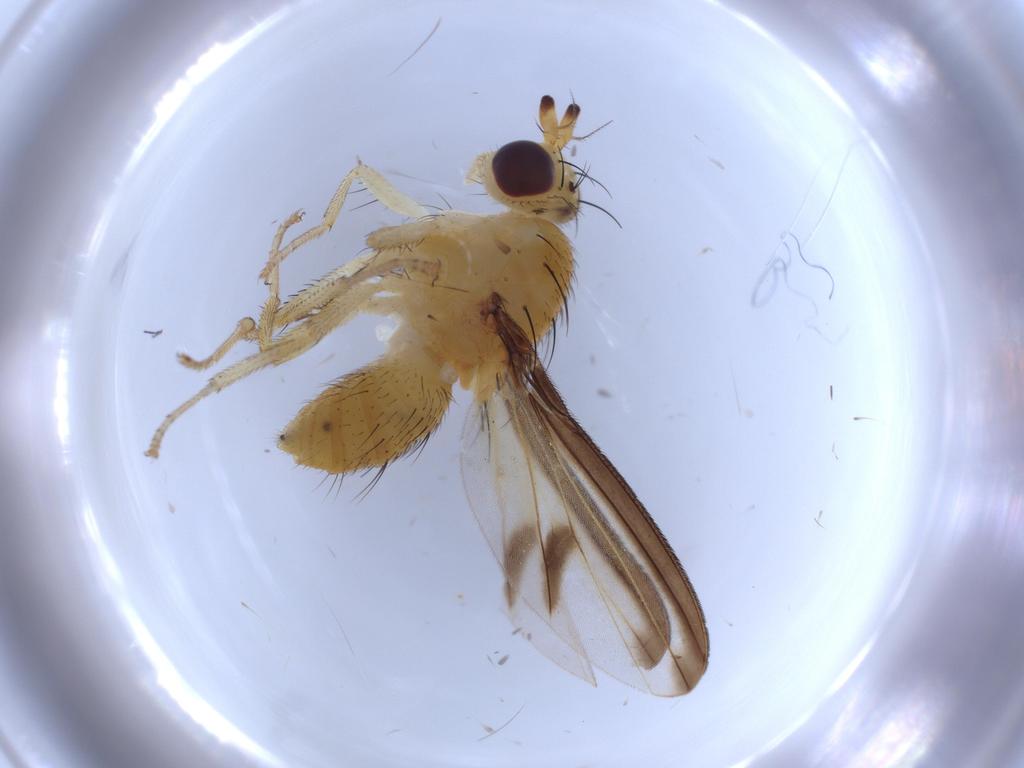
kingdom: Animalia
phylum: Arthropoda
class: Insecta
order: Diptera
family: Lauxaniidae
